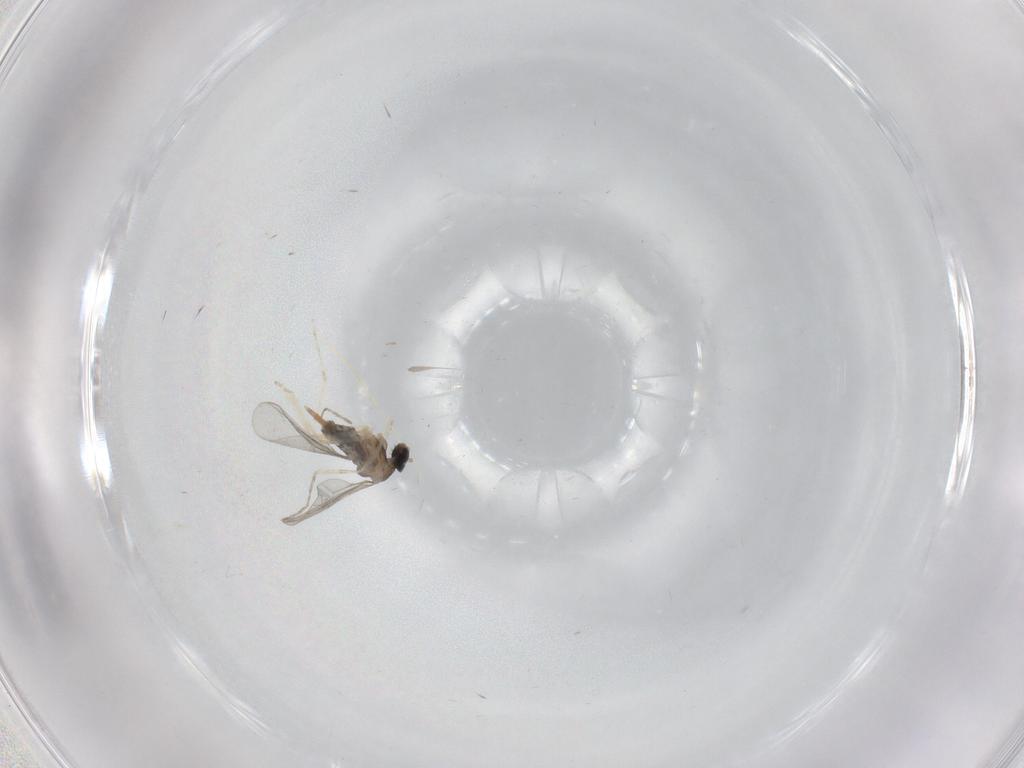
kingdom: Animalia
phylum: Arthropoda
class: Insecta
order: Diptera
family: Cecidomyiidae
